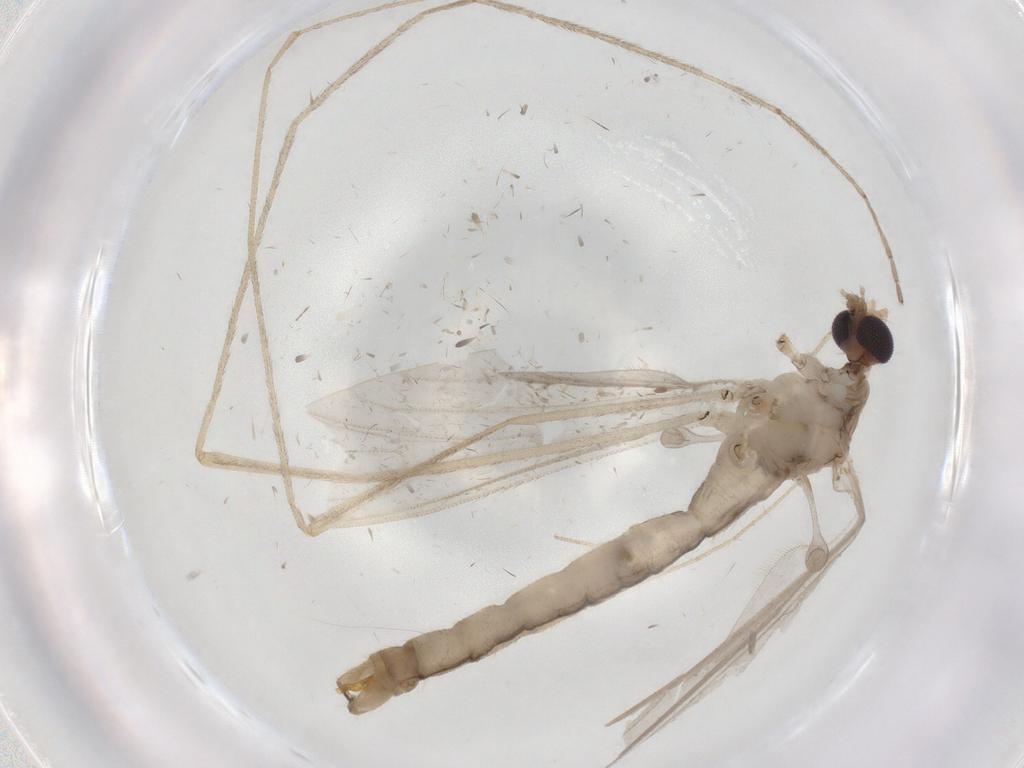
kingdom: Animalia
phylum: Arthropoda
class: Insecta
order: Diptera
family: Limoniidae
